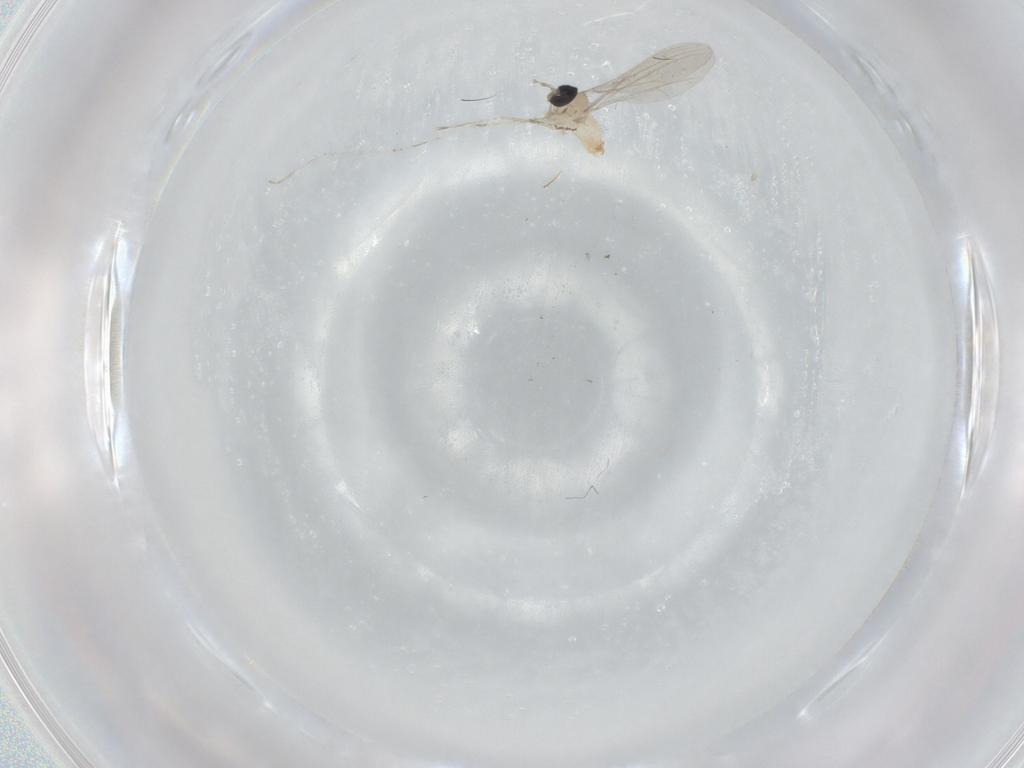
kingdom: Animalia
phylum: Arthropoda
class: Insecta
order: Diptera
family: Cecidomyiidae
